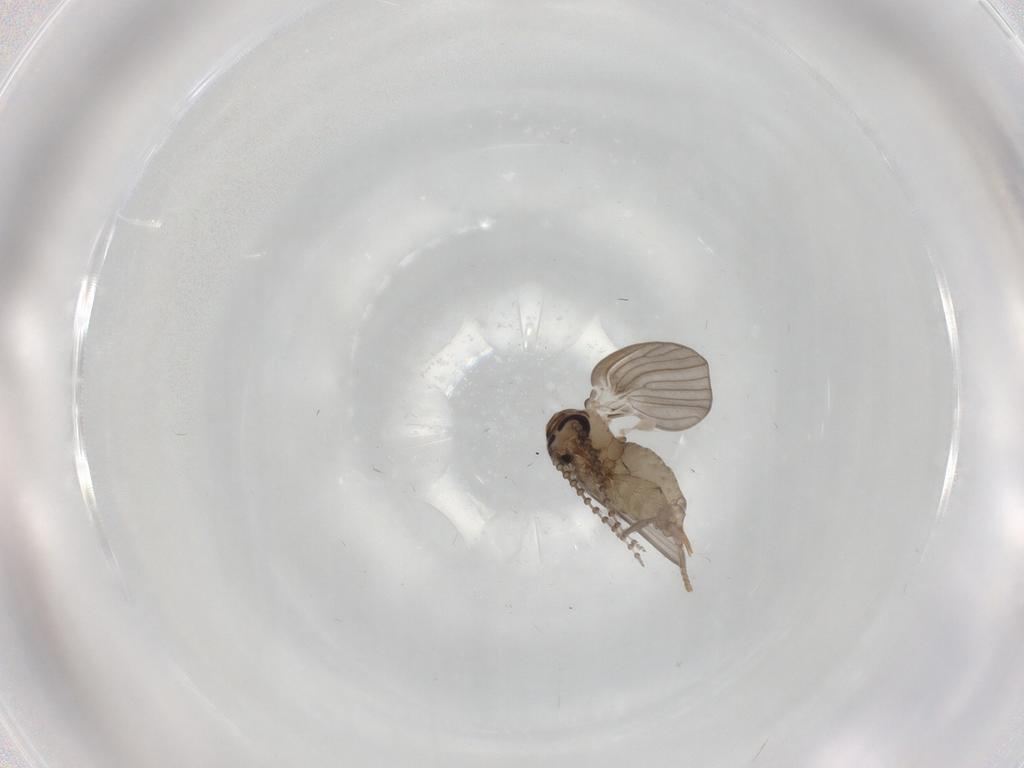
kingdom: Animalia
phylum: Arthropoda
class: Insecta
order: Diptera
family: Psychodidae
